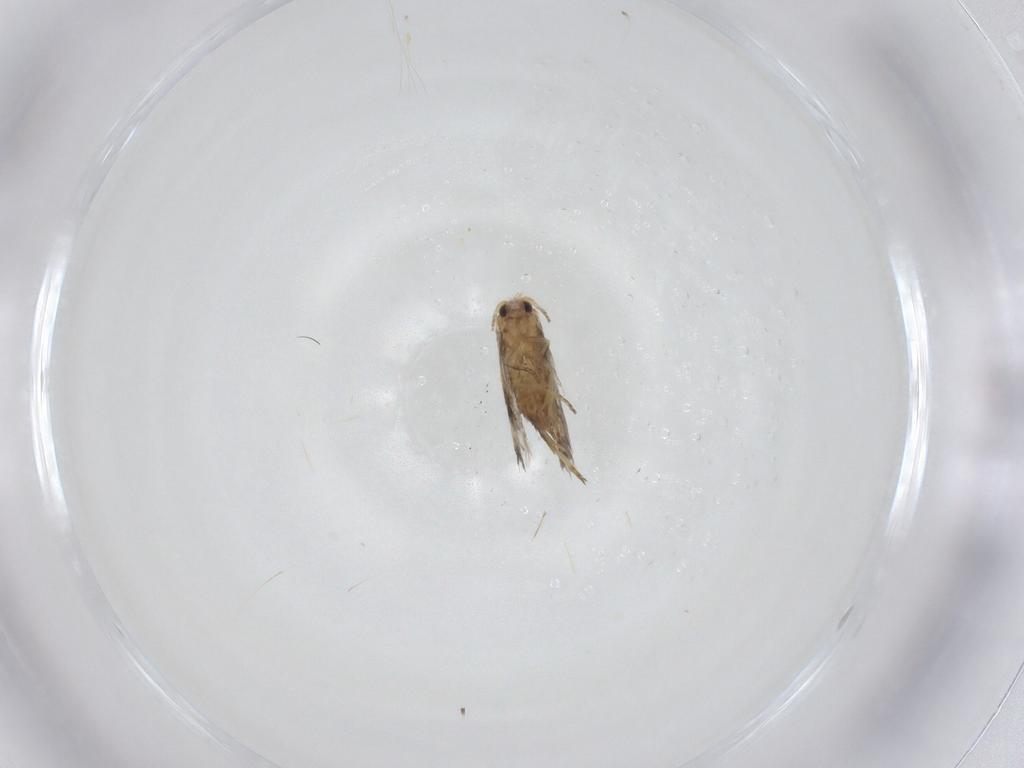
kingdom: Animalia
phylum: Arthropoda
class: Insecta
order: Lepidoptera
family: Nepticulidae
